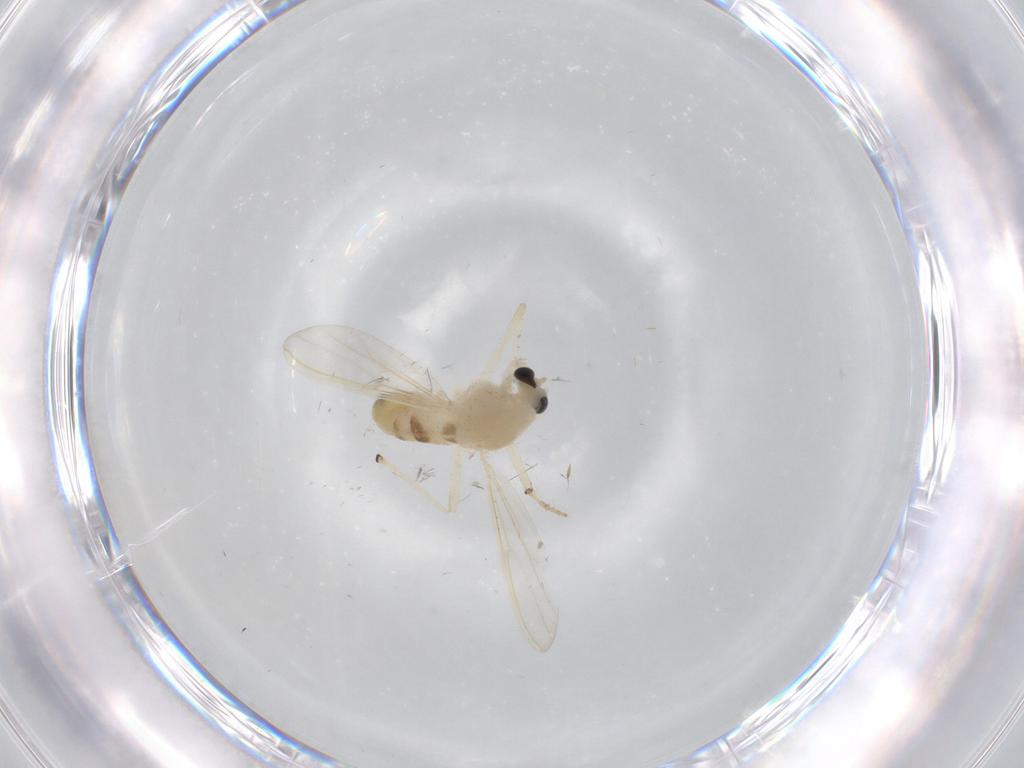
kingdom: Animalia
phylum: Arthropoda
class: Insecta
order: Diptera
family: Chironomidae
